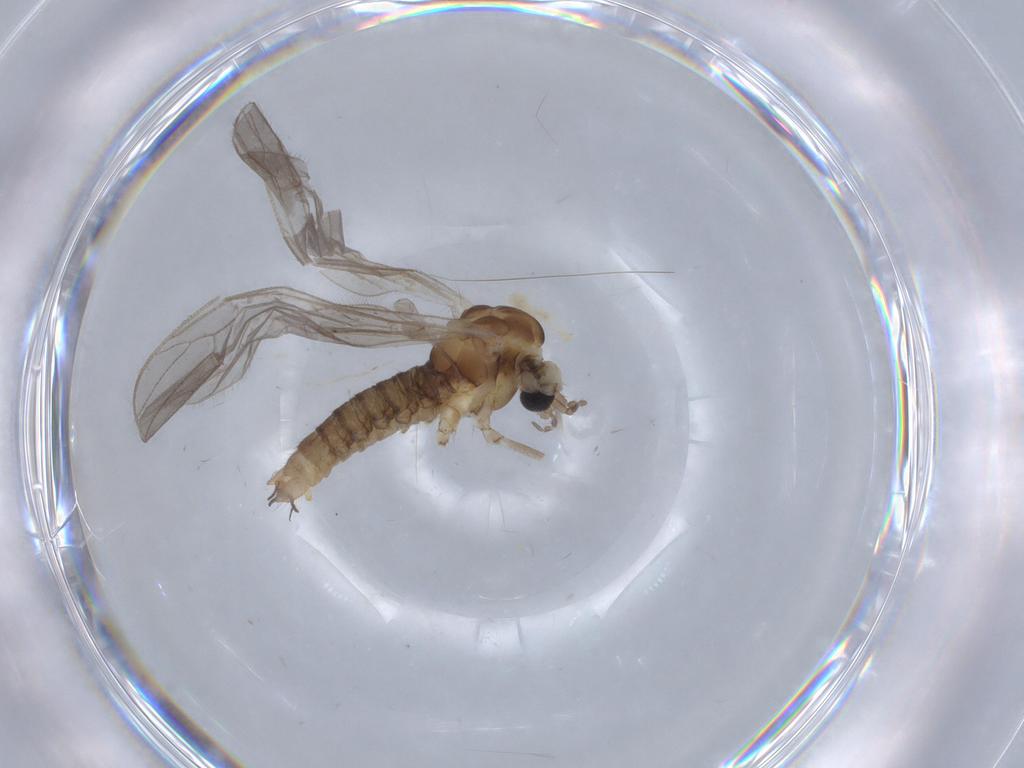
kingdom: Animalia
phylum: Arthropoda
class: Insecta
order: Diptera
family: Limoniidae
